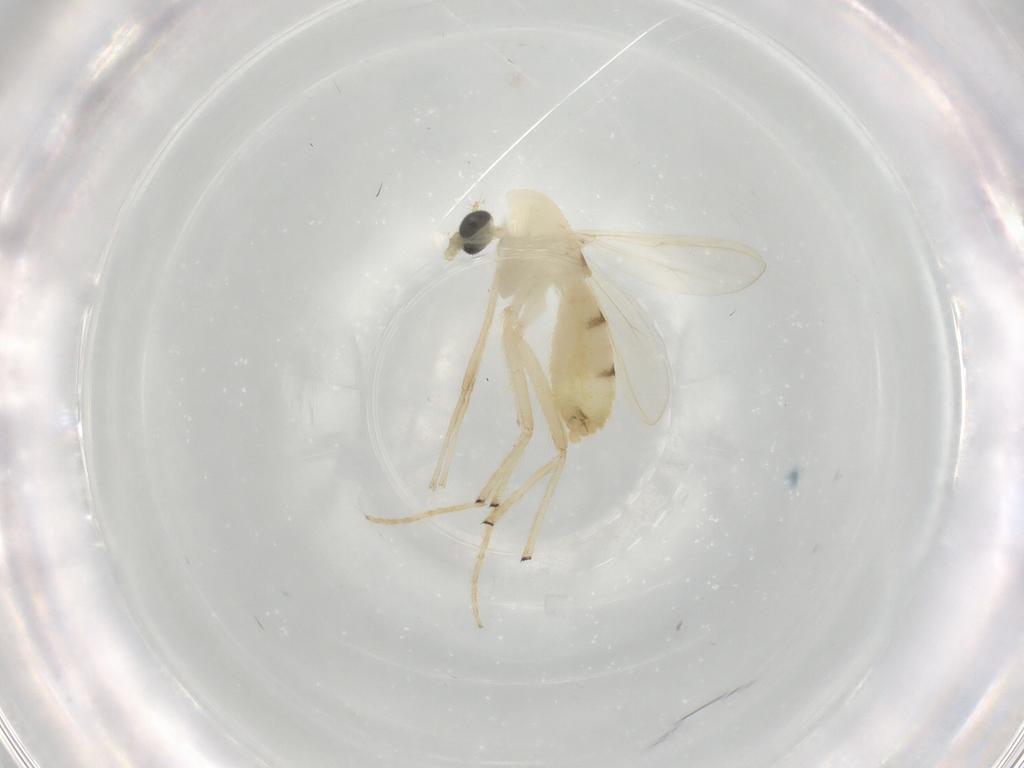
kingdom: Animalia
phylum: Arthropoda
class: Insecta
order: Diptera
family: Chironomidae
